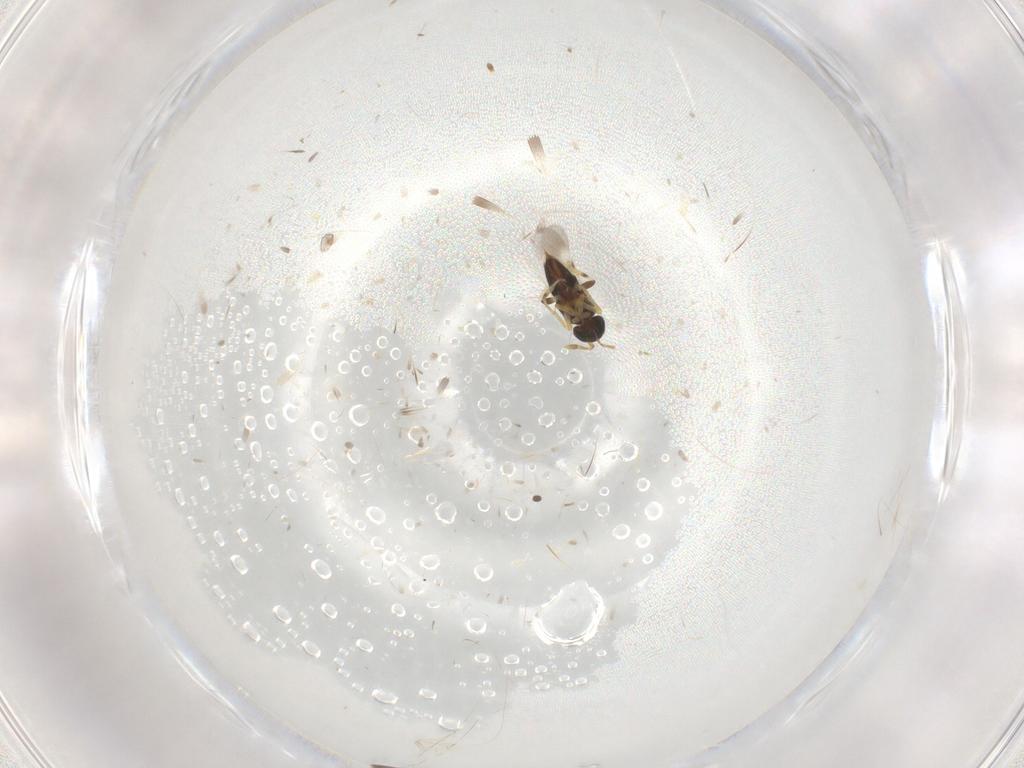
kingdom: Animalia
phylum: Arthropoda
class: Insecta
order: Hymenoptera
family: Encyrtidae
